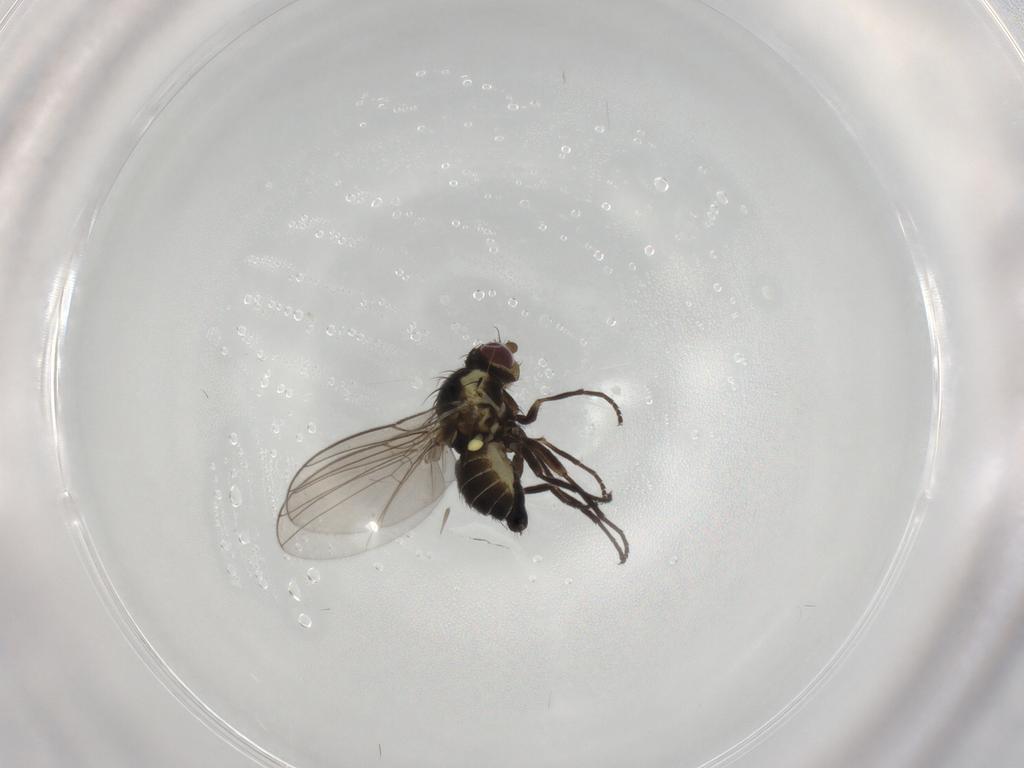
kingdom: Animalia
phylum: Arthropoda
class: Insecta
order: Diptera
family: Agromyzidae
